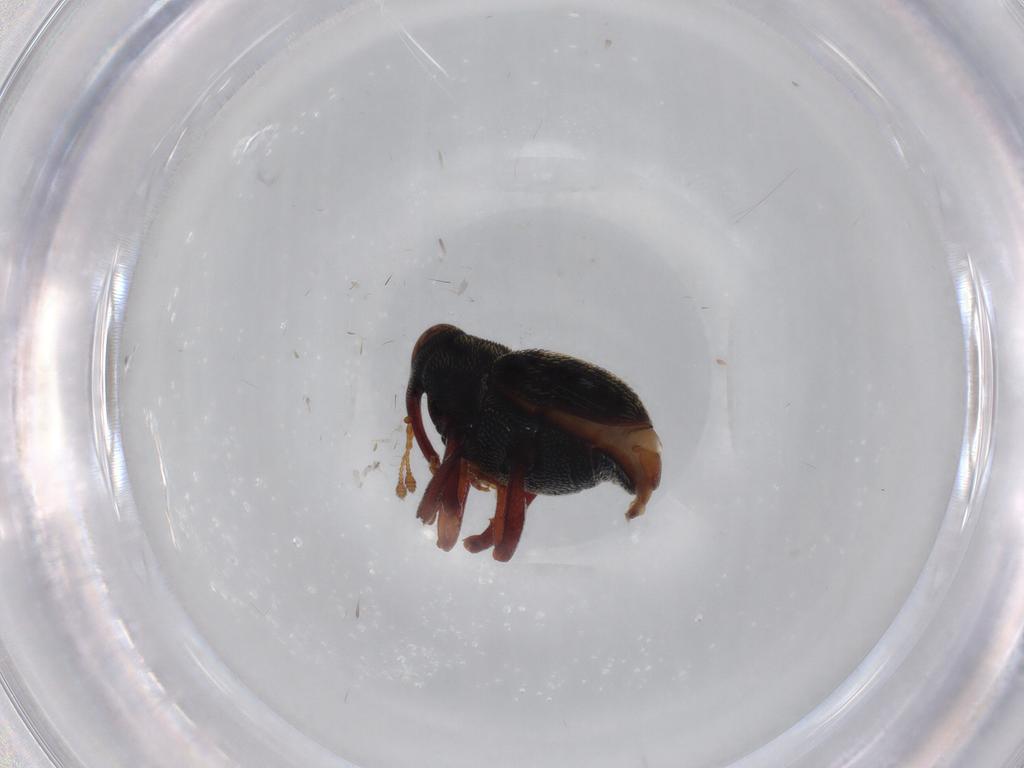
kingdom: Animalia
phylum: Arthropoda
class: Insecta
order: Coleoptera
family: Curculionidae
